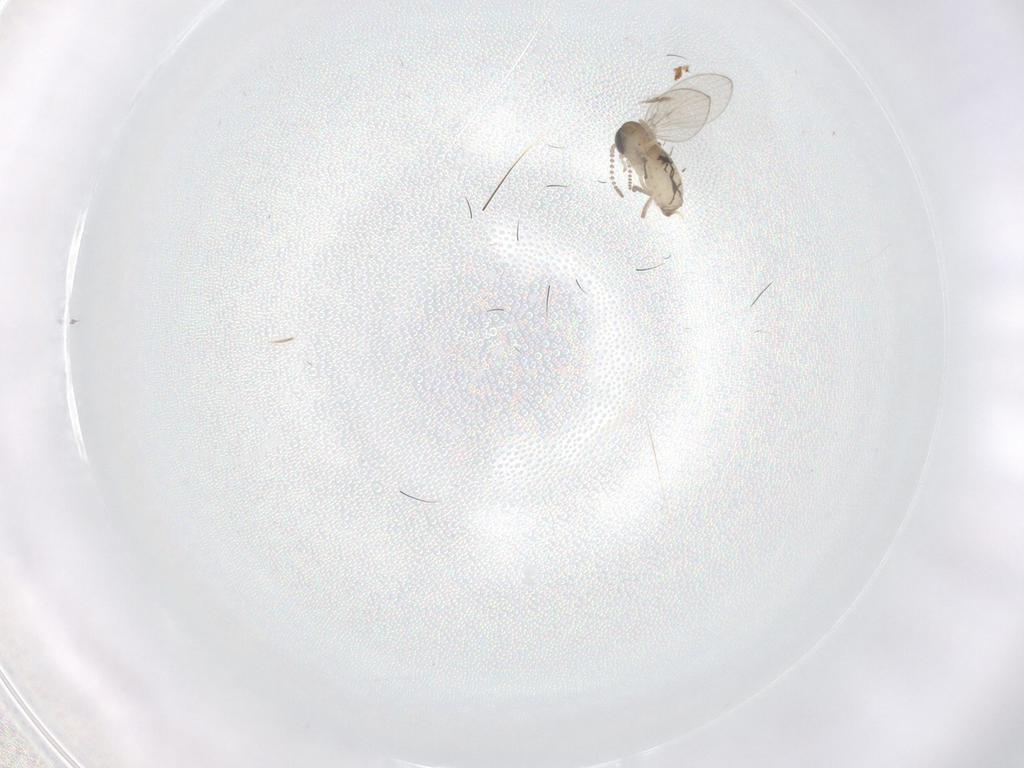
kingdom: Animalia
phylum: Arthropoda
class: Insecta
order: Diptera
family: Psychodidae
